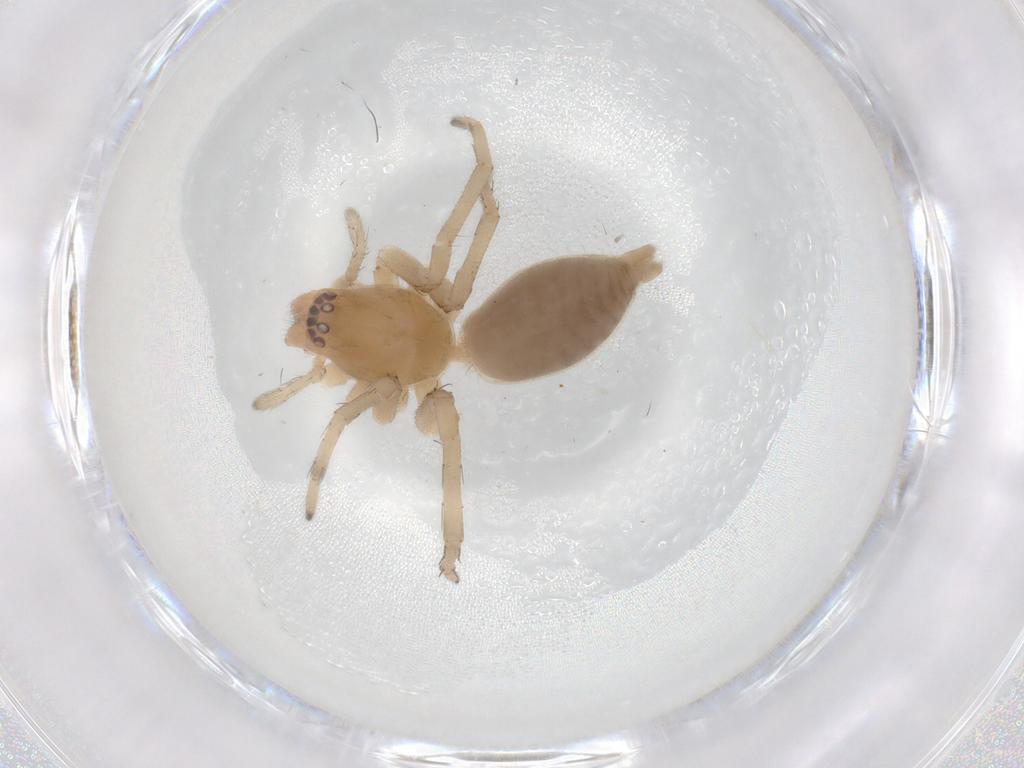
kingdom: Animalia
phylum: Arthropoda
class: Arachnida
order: Araneae
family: Anyphaenidae
